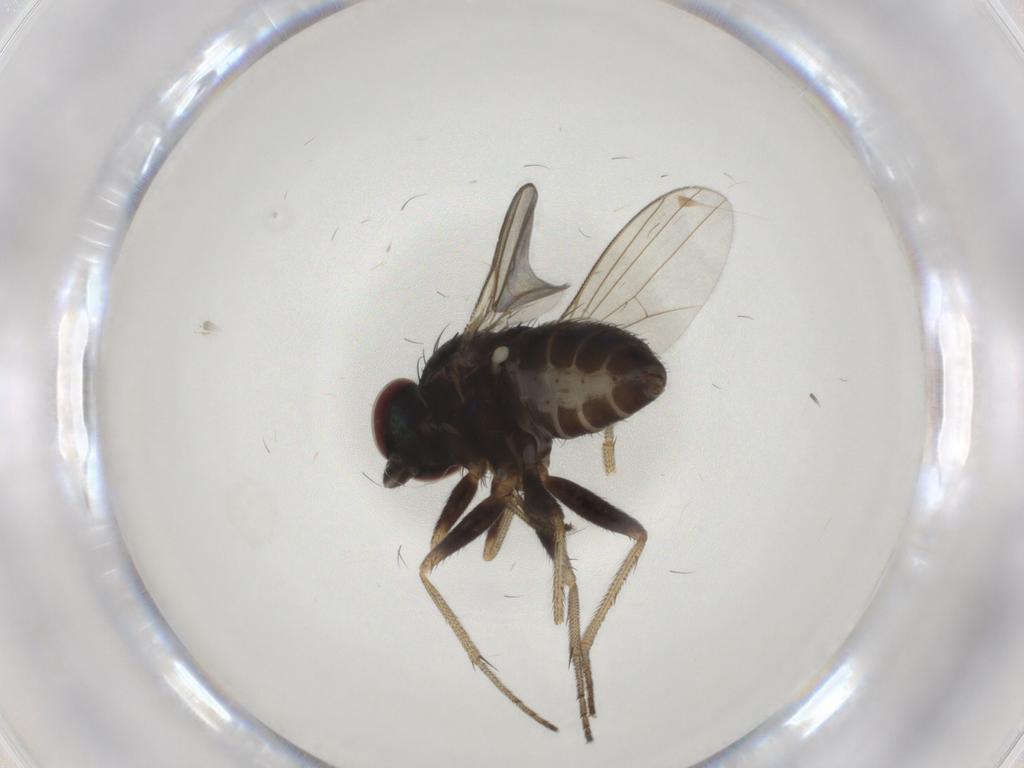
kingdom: Animalia
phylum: Arthropoda
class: Insecta
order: Diptera
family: Dolichopodidae
